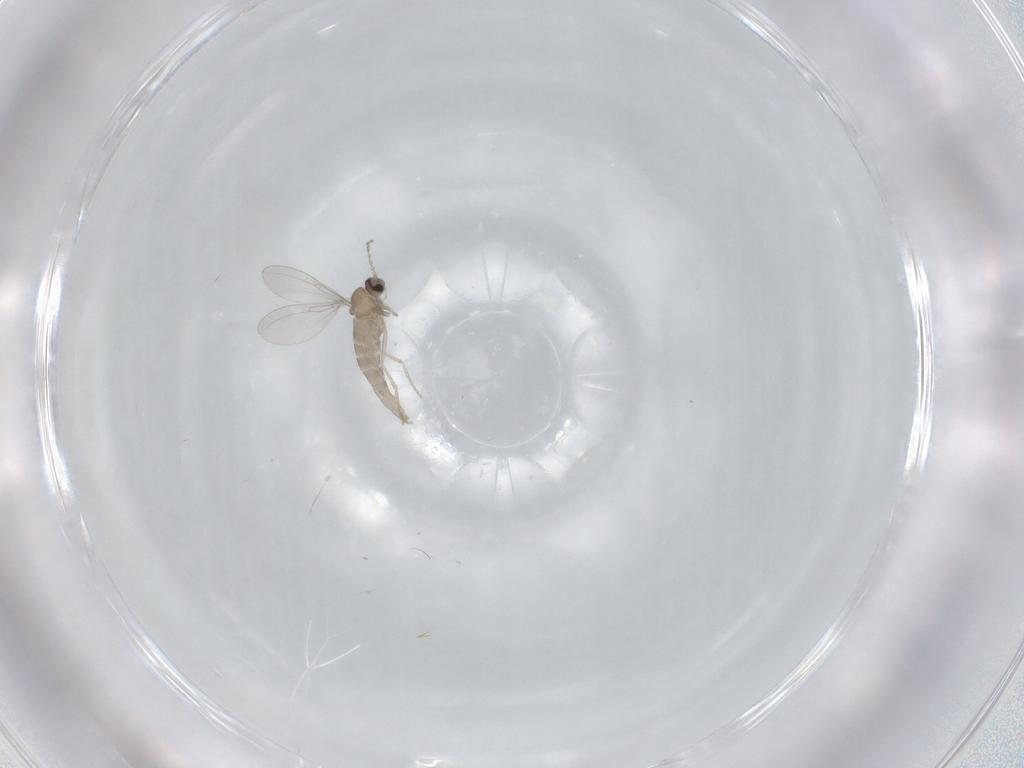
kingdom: Animalia
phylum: Arthropoda
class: Insecta
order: Diptera
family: Cecidomyiidae
